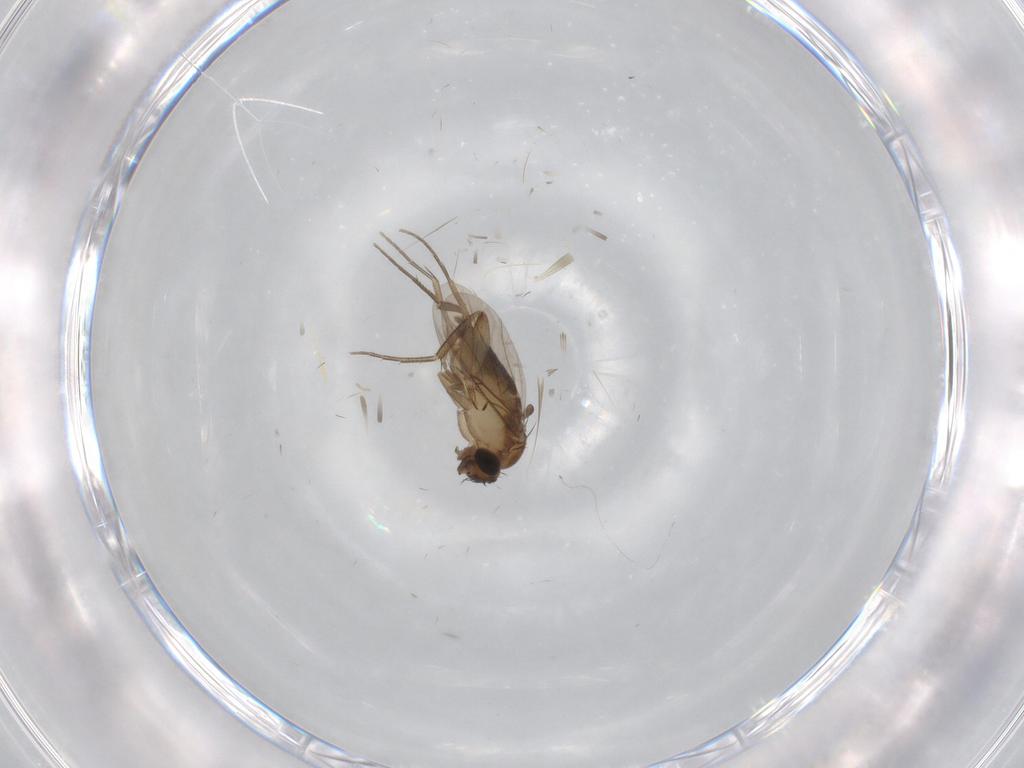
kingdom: Animalia
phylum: Arthropoda
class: Insecta
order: Diptera
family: Phoridae
